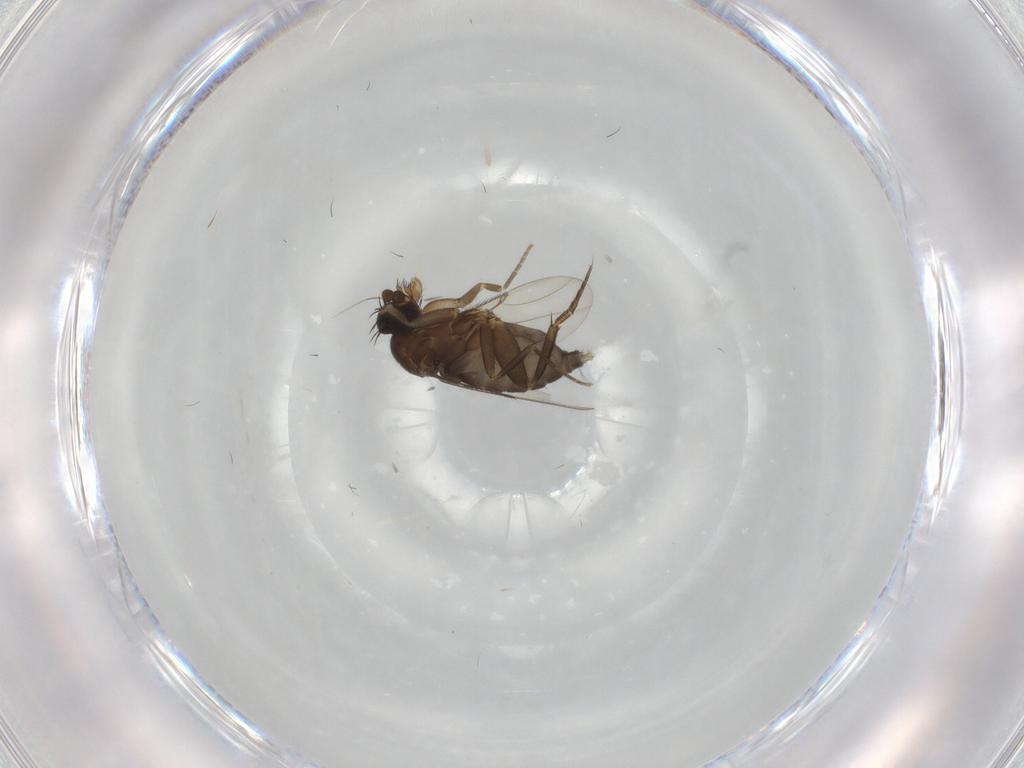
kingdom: Animalia
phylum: Arthropoda
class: Insecta
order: Diptera
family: Phoridae
